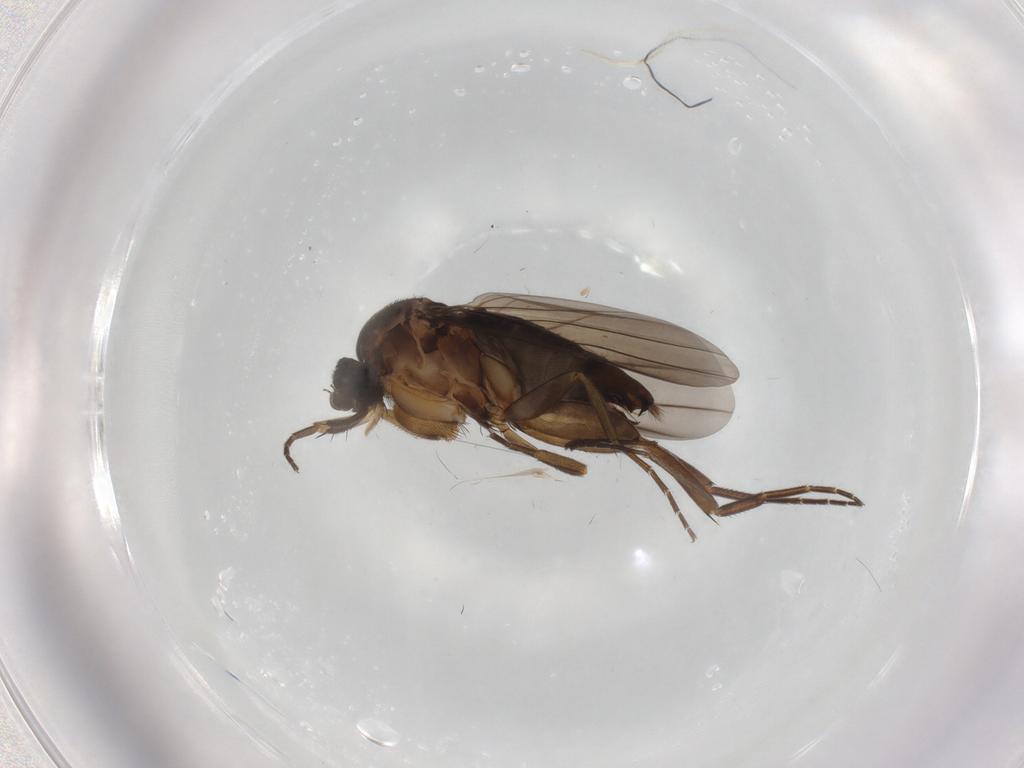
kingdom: Animalia
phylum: Arthropoda
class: Insecta
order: Diptera
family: Phoridae
